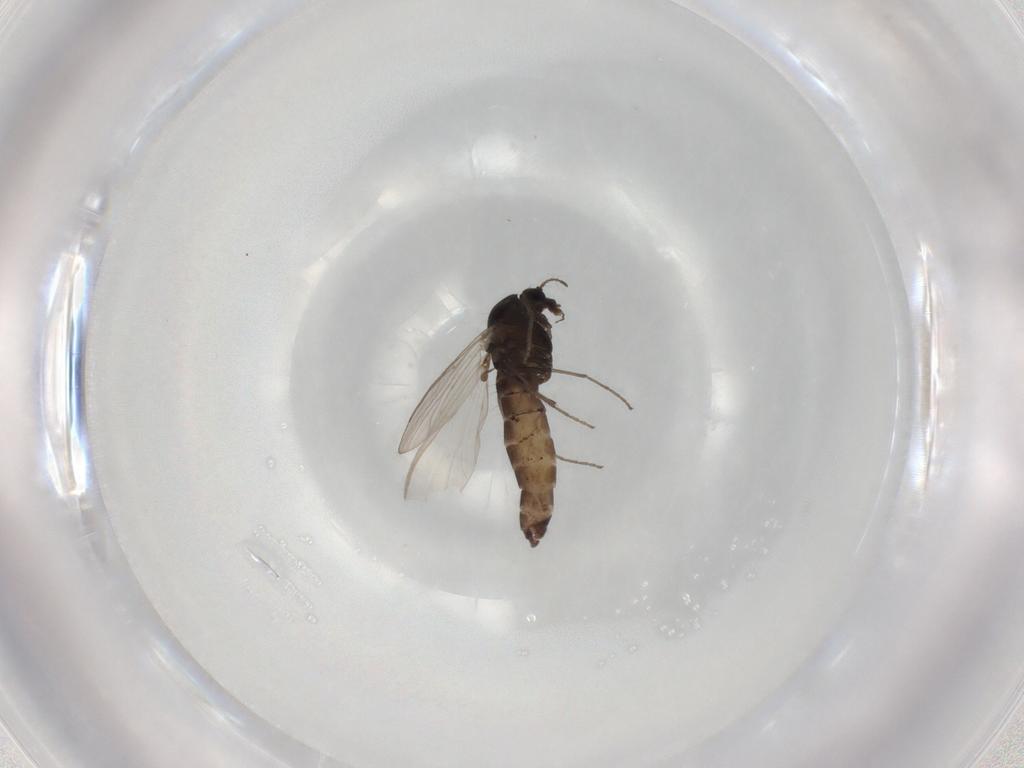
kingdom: Animalia
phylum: Arthropoda
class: Insecta
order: Diptera
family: Chironomidae
